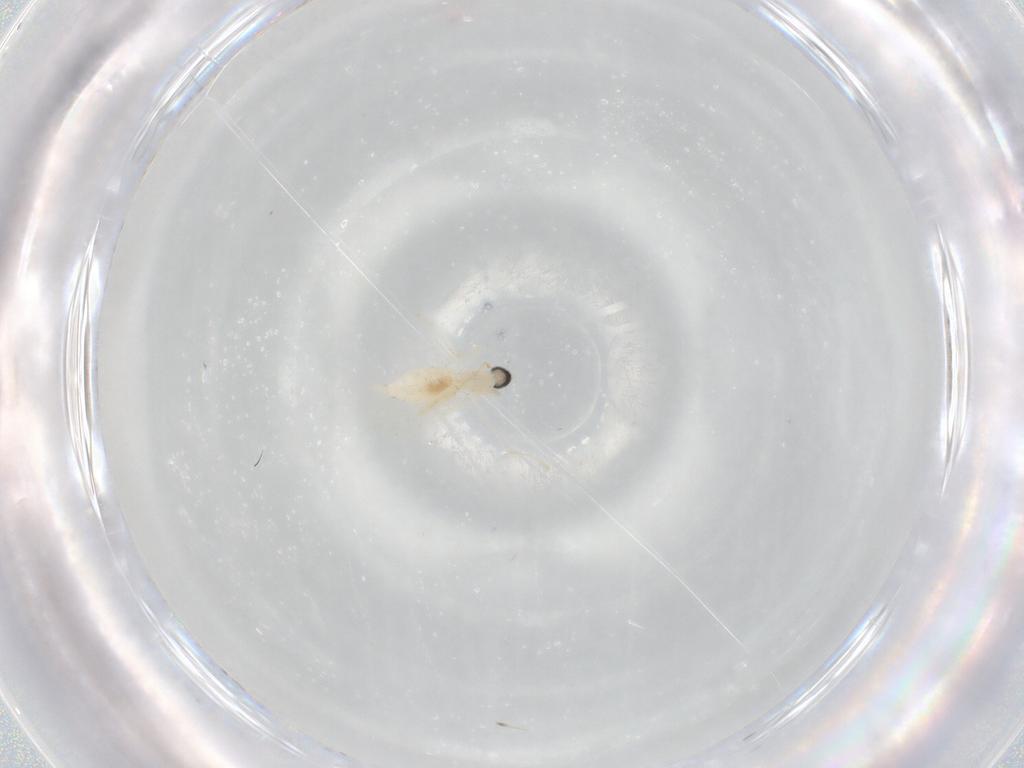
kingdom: Animalia
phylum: Arthropoda
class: Insecta
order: Diptera
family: Cecidomyiidae
